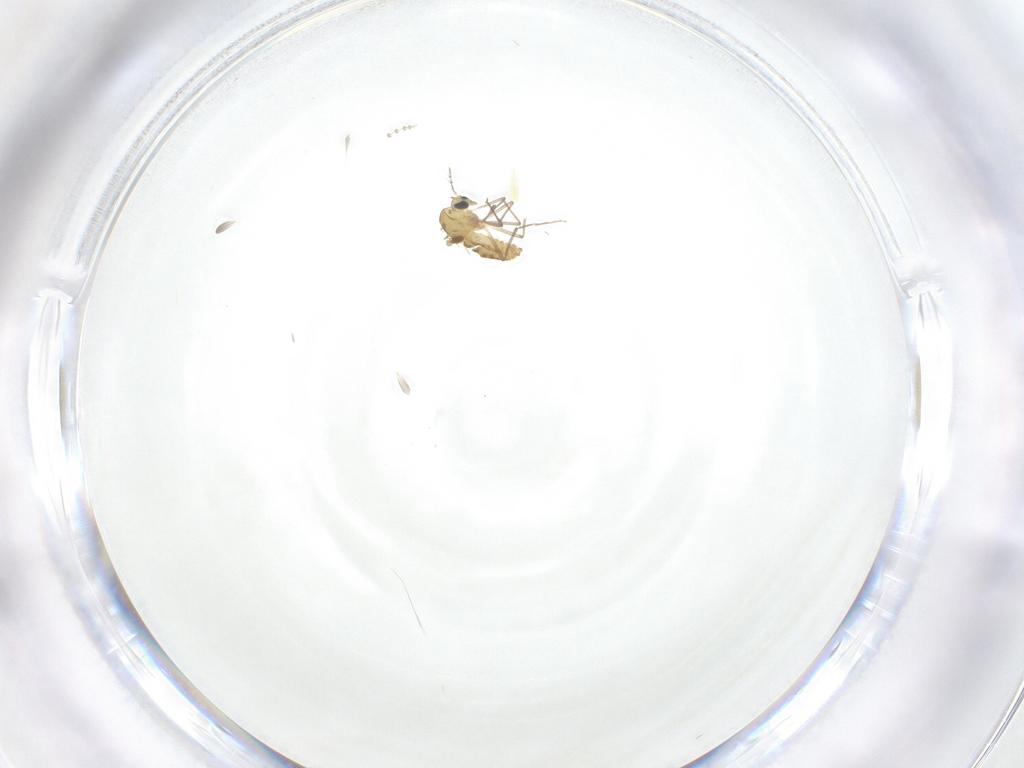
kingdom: Animalia
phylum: Arthropoda
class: Insecta
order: Diptera
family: Psychodidae
